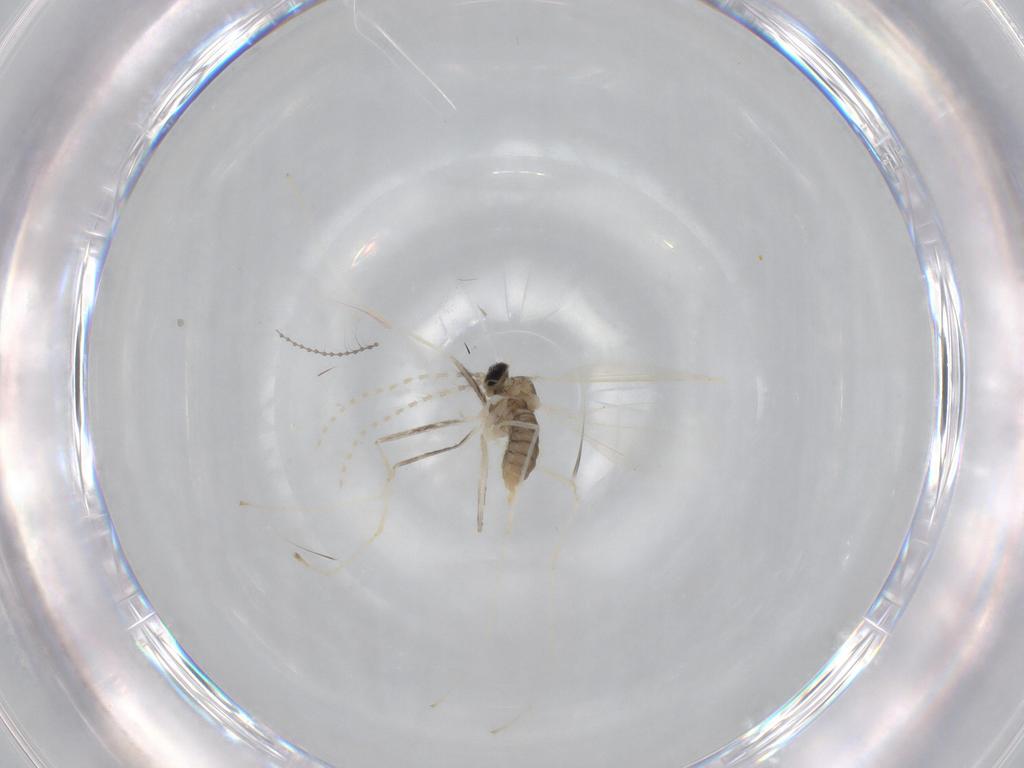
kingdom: Animalia
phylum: Arthropoda
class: Insecta
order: Diptera
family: Cecidomyiidae
